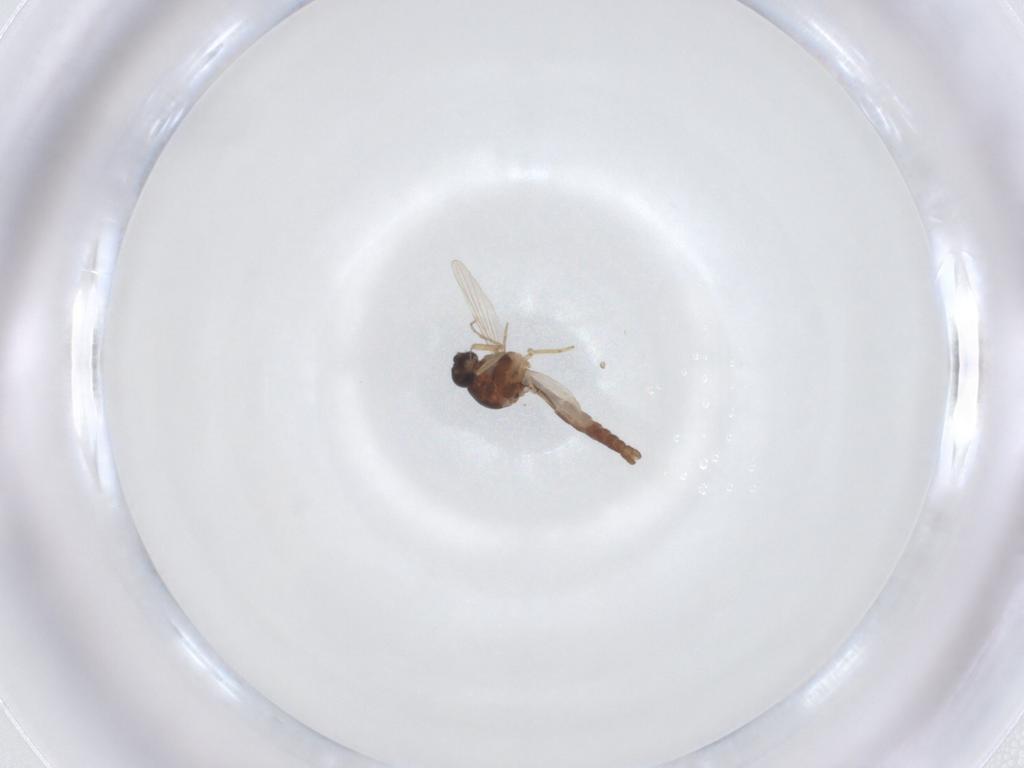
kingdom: Animalia
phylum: Arthropoda
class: Insecta
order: Diptera
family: Ceratopogonidae
